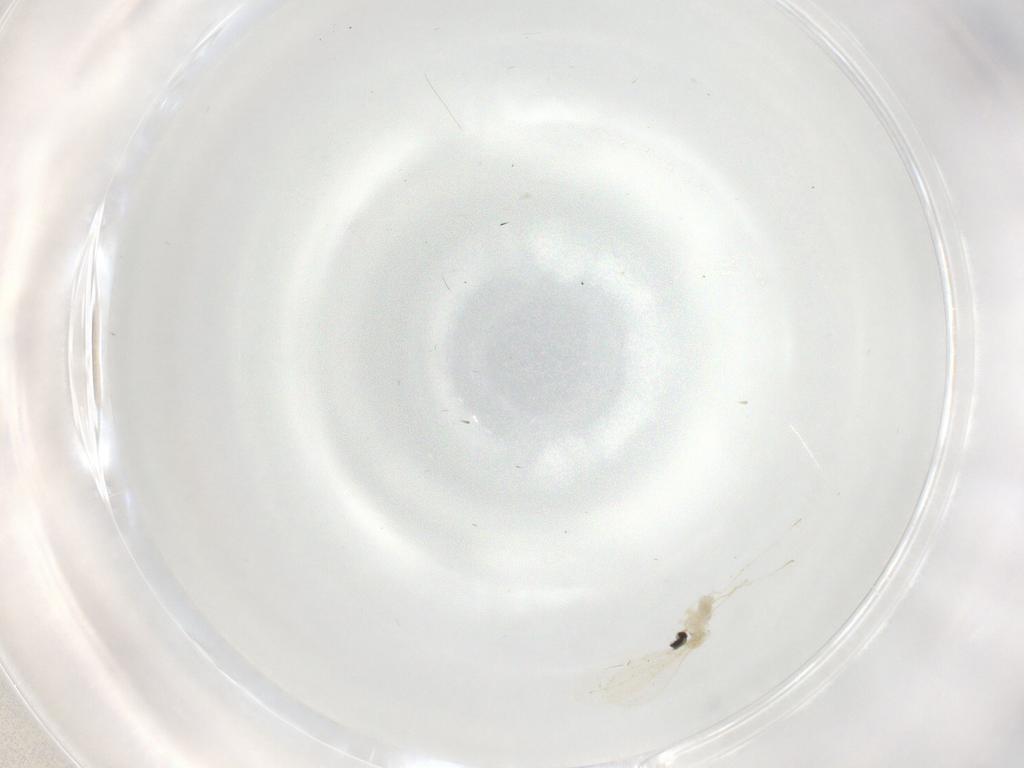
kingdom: Animalia
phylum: Arthropoda
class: Insecta
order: Diptera
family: Cecidomyiidae
